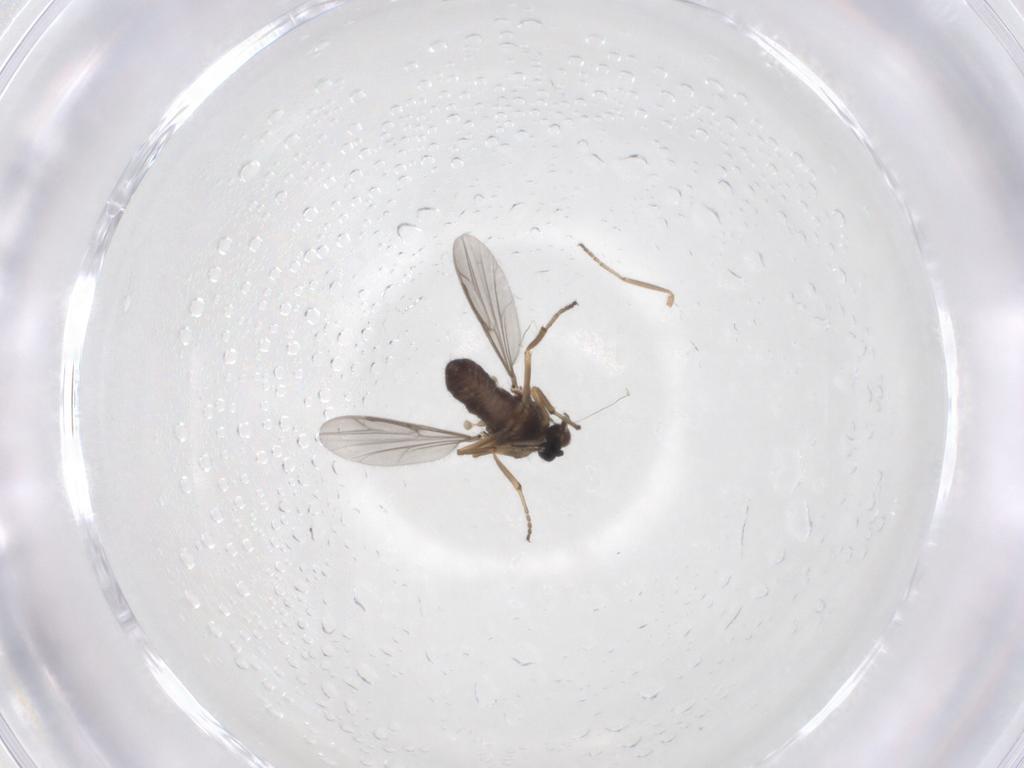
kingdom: Animalia
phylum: Arthropoda
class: Insecta
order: Diptera
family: Ceratopogonidae
